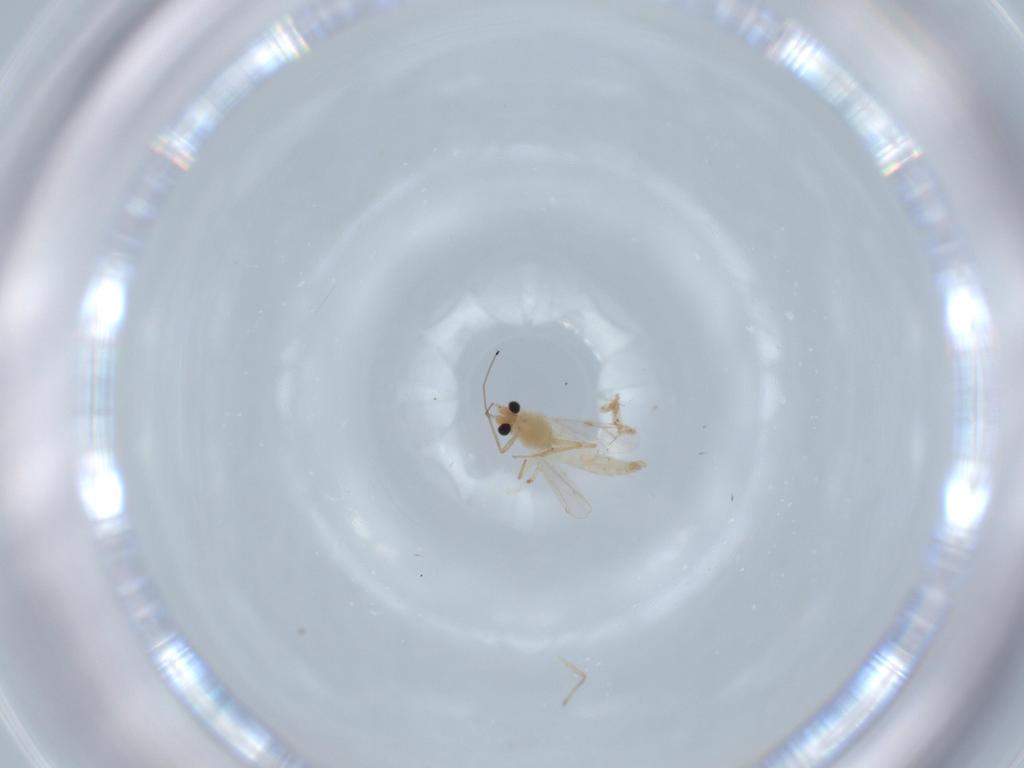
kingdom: Animalia
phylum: Arthropoda
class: Insecta
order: Diptera
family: Chironomidae
